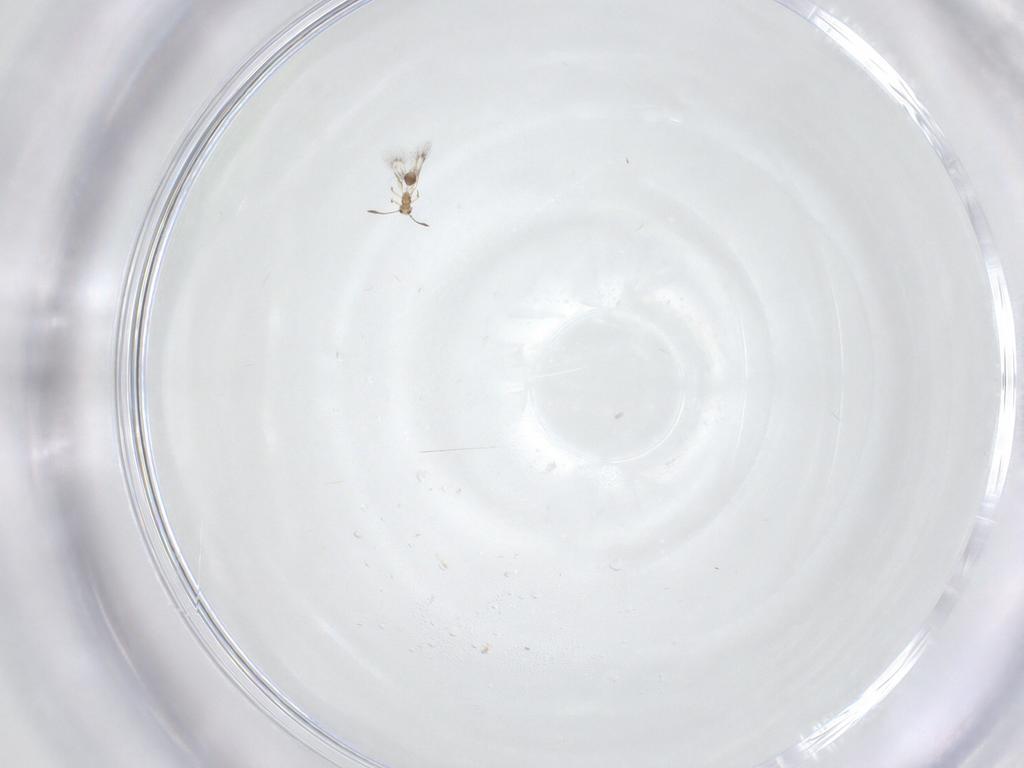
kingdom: Animalia
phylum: Arthropoda
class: Insecta
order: Hymenoptera
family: Mymarommatidae
